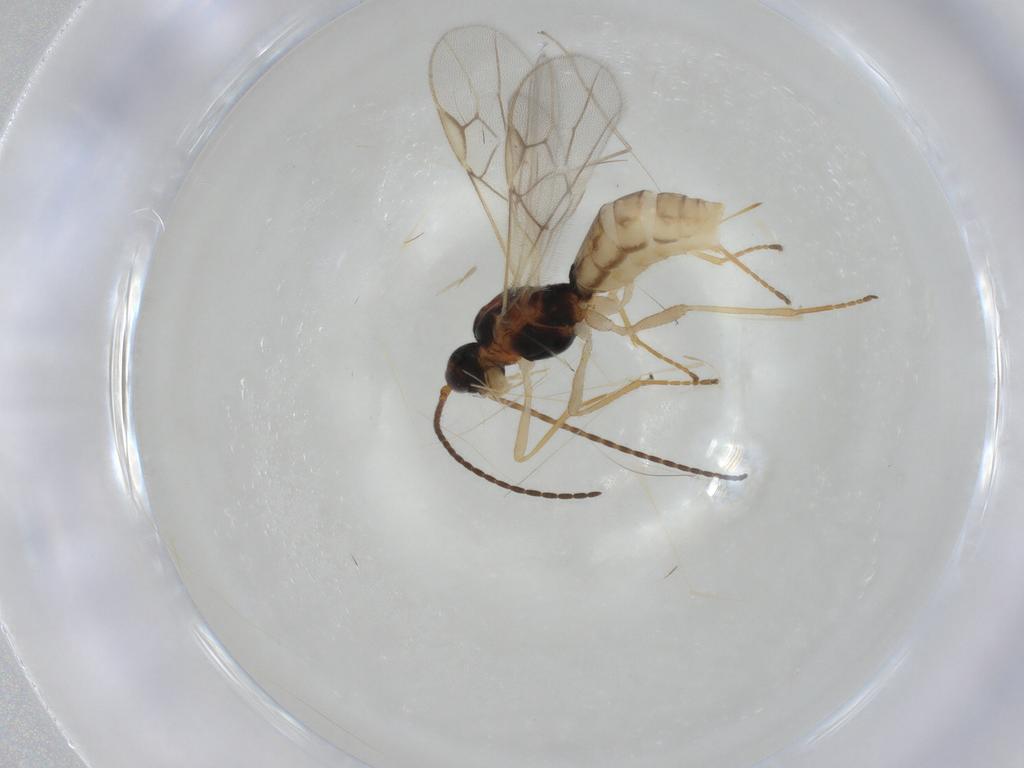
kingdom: Animalia
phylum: Arthropoda
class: Insecta
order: Hymenoptera
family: Braconidae
